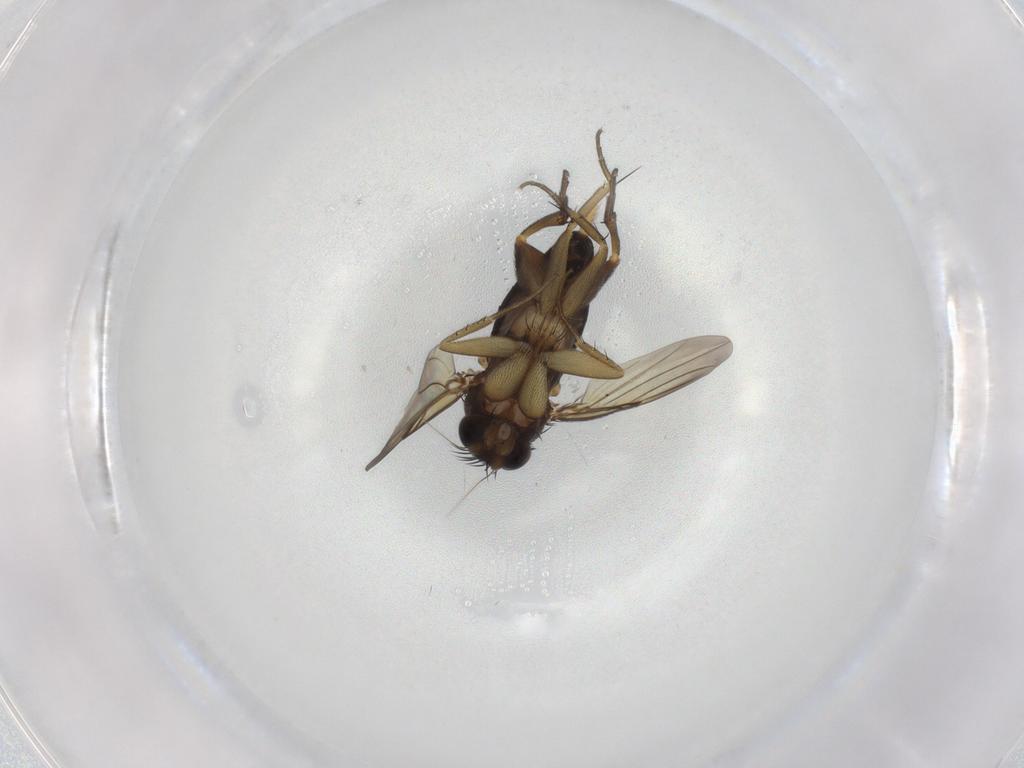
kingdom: Animalia
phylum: Arthropoda
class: Insecta
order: Diptera
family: Phoridae
